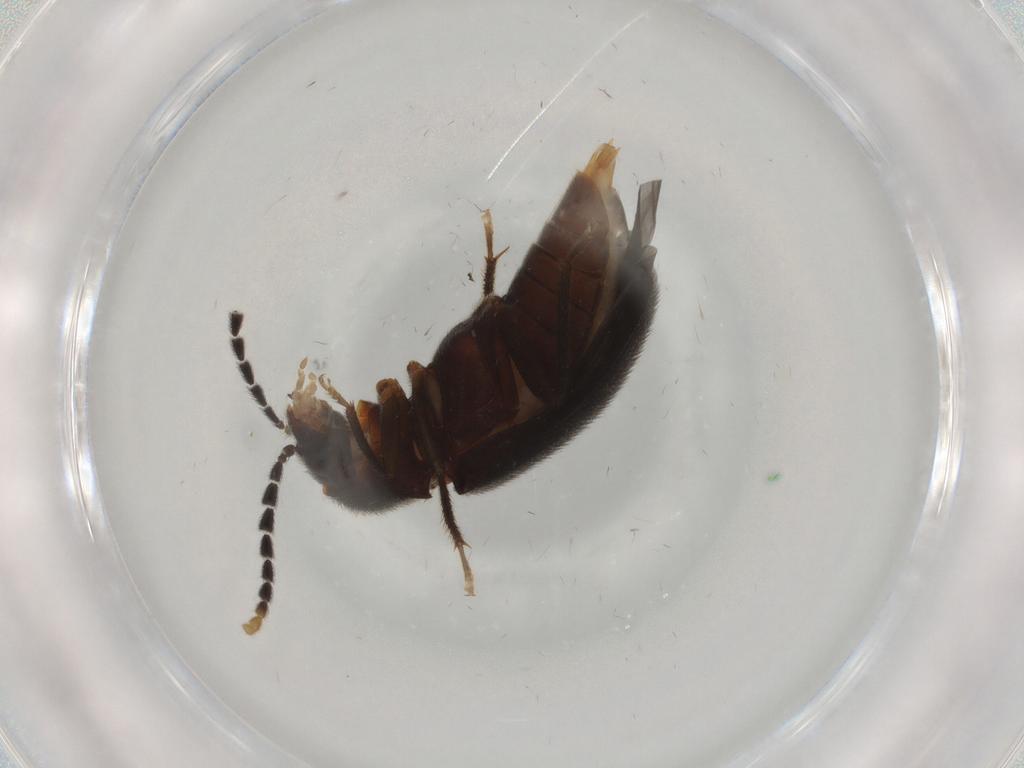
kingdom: Animalia
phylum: Arthropoda
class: Insecta
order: Coleoptera
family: Ptilodactylidae
